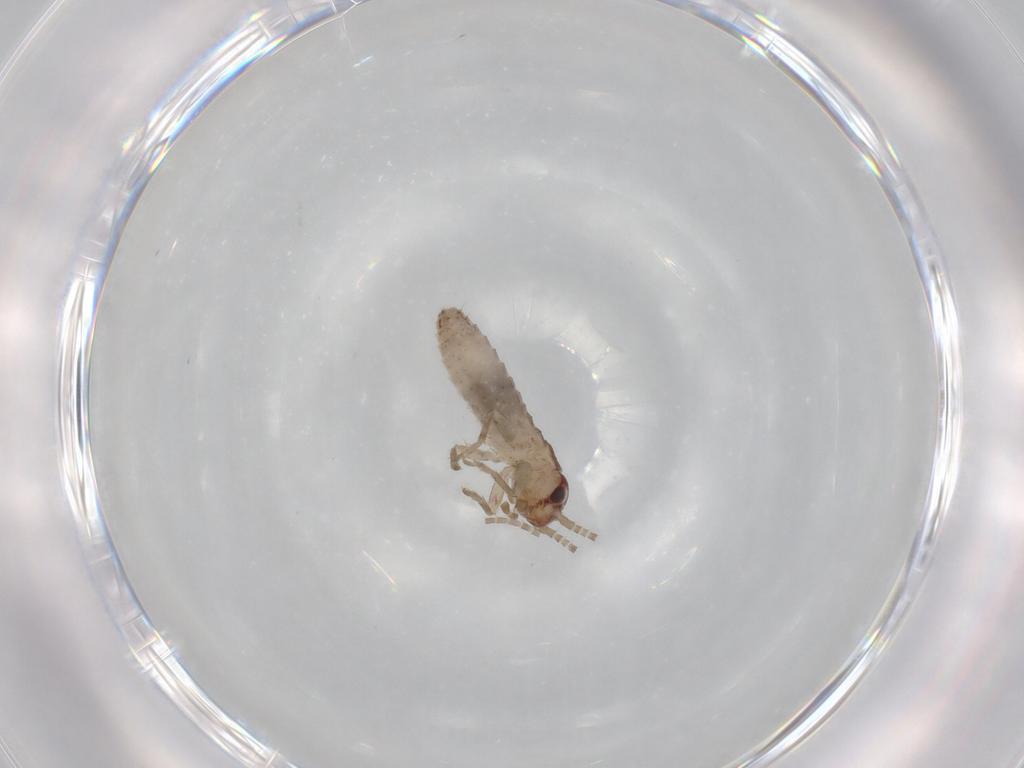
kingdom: Animalia
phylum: Arthropoda
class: Insecta
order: Orthoptera
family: Mogoplistidae
